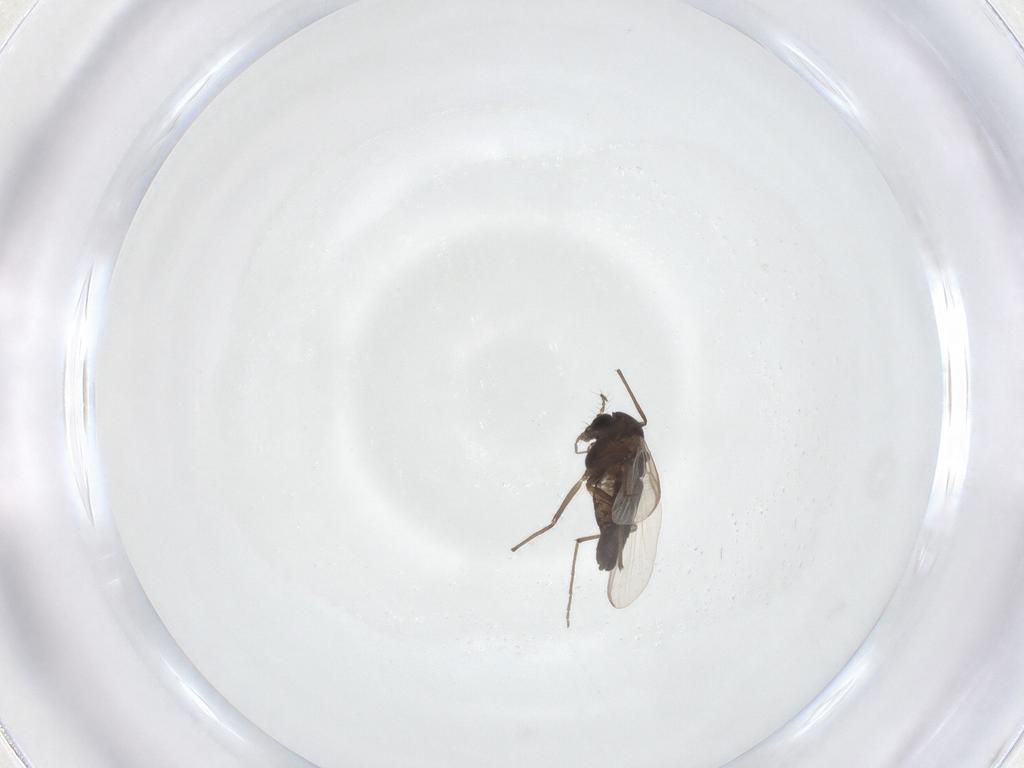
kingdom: Animalia
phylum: Arthropoda
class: Insecta
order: Diptera
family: Chironomidae
